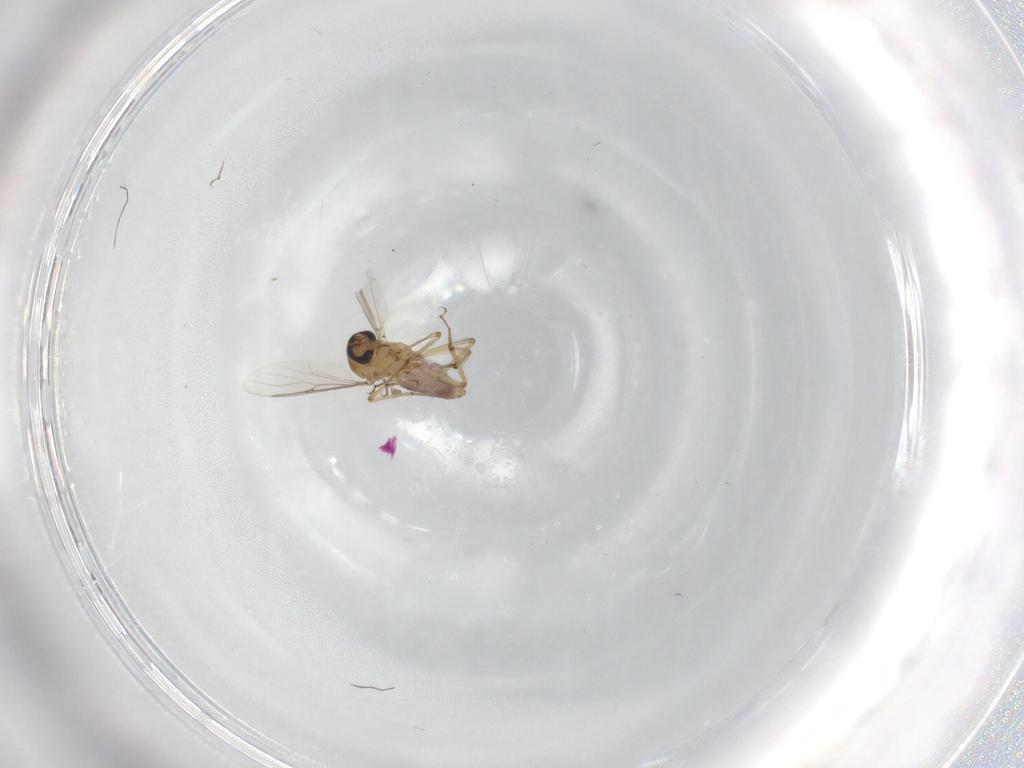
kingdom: Animalia
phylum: Arthropoda
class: Insecta
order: Diptera
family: Cecidomyiidae
